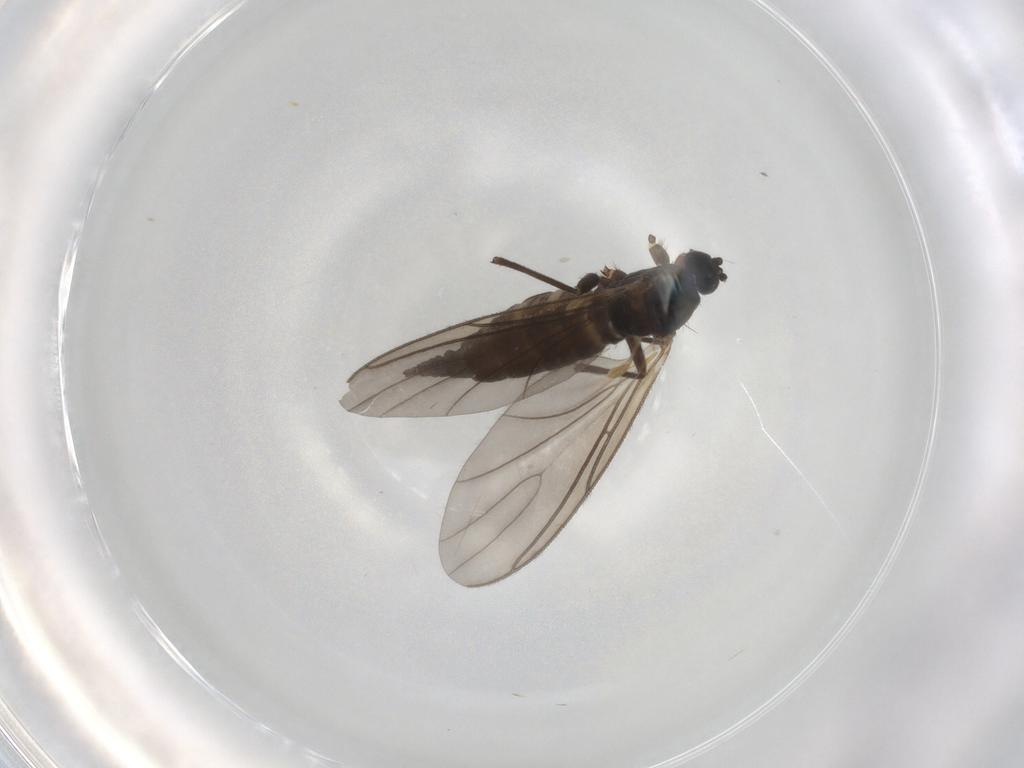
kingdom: Animalia
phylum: Arthropoda
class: Insecta
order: Diptera
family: Sciaridae
